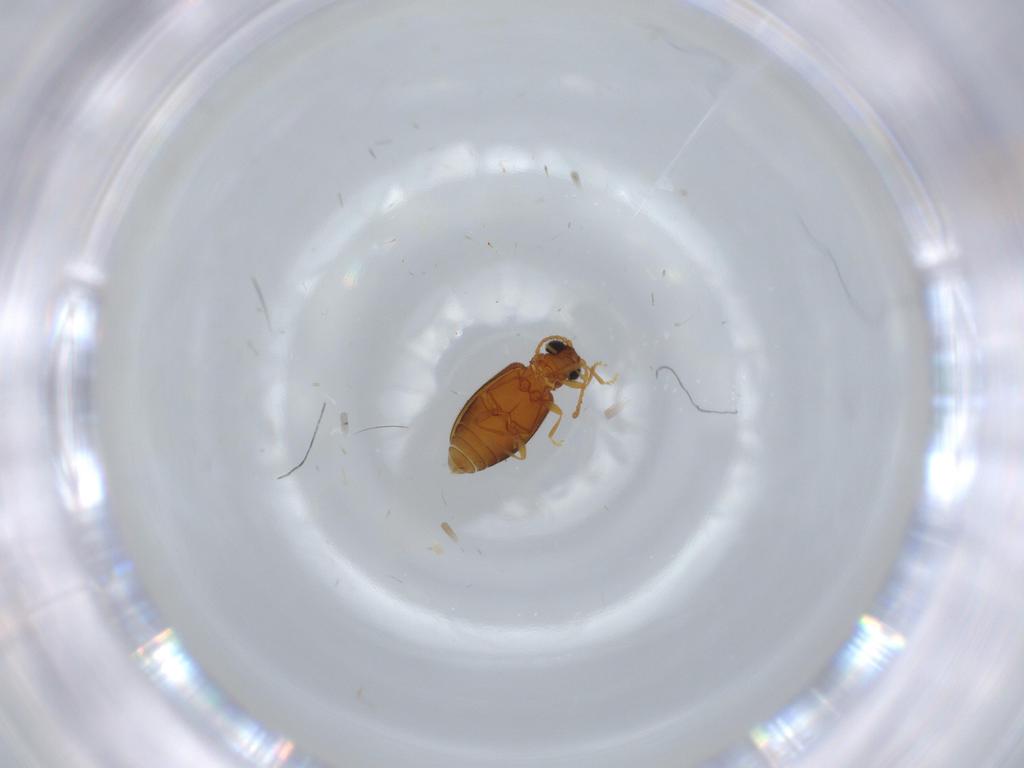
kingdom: Animalia
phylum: Arthropoda
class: Insecta
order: Coleoptera
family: Aderidae
